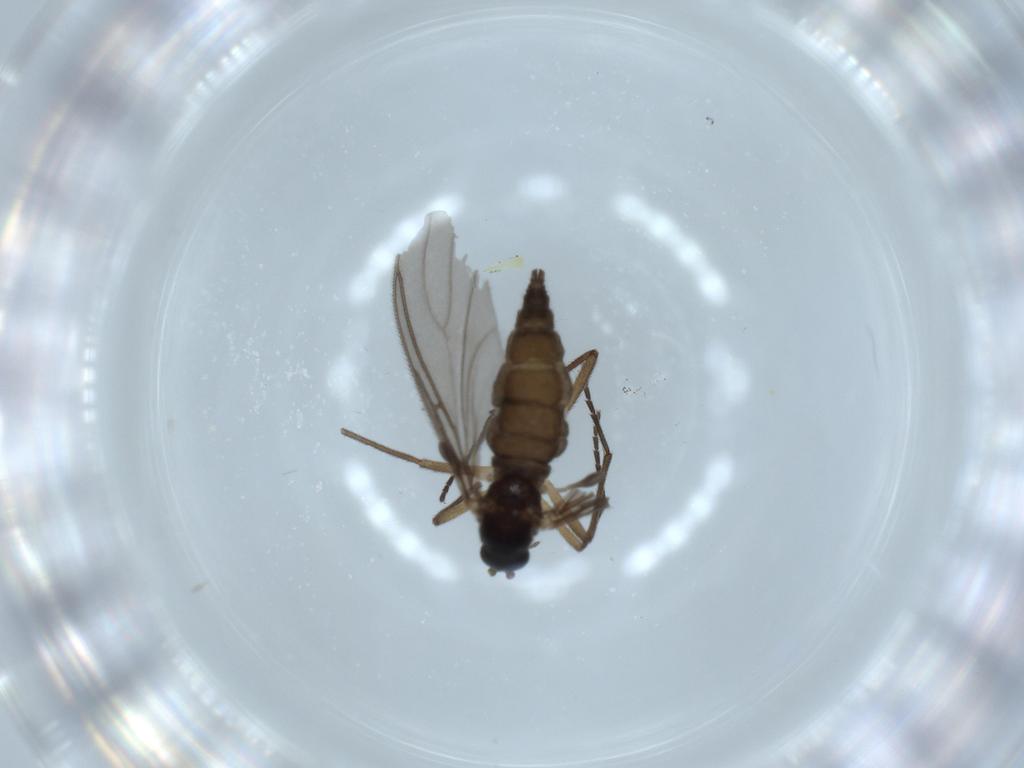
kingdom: Animalia
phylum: Arthropoda
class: Insecta
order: Diptera
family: Sciaridae
